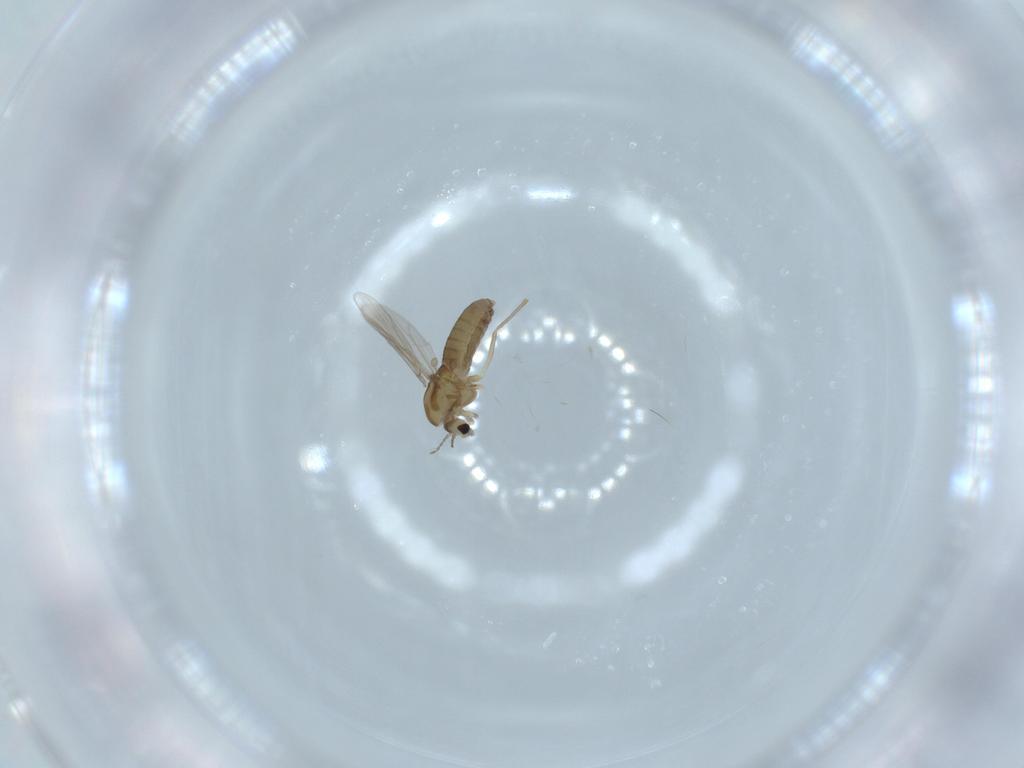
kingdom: Animalia
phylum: Arthropoda
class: Insecta
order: Diptera
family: Chironomidae
